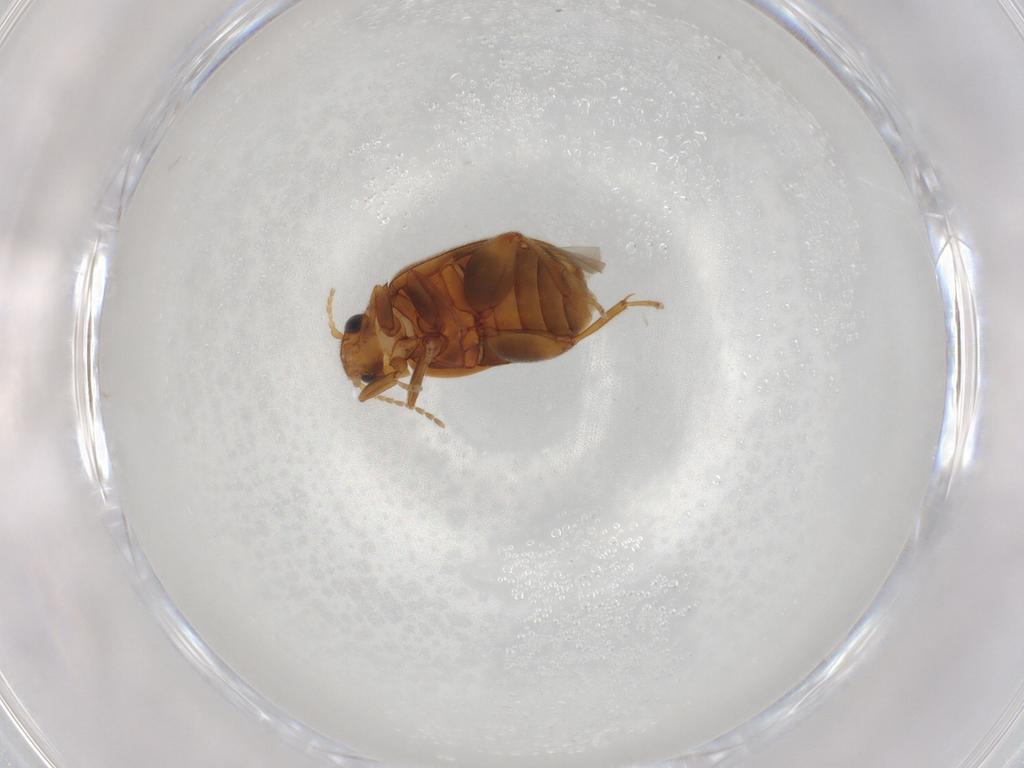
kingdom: Animalia
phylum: Arthropoda
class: Insecta
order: Coleoptera
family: Scirtidae
